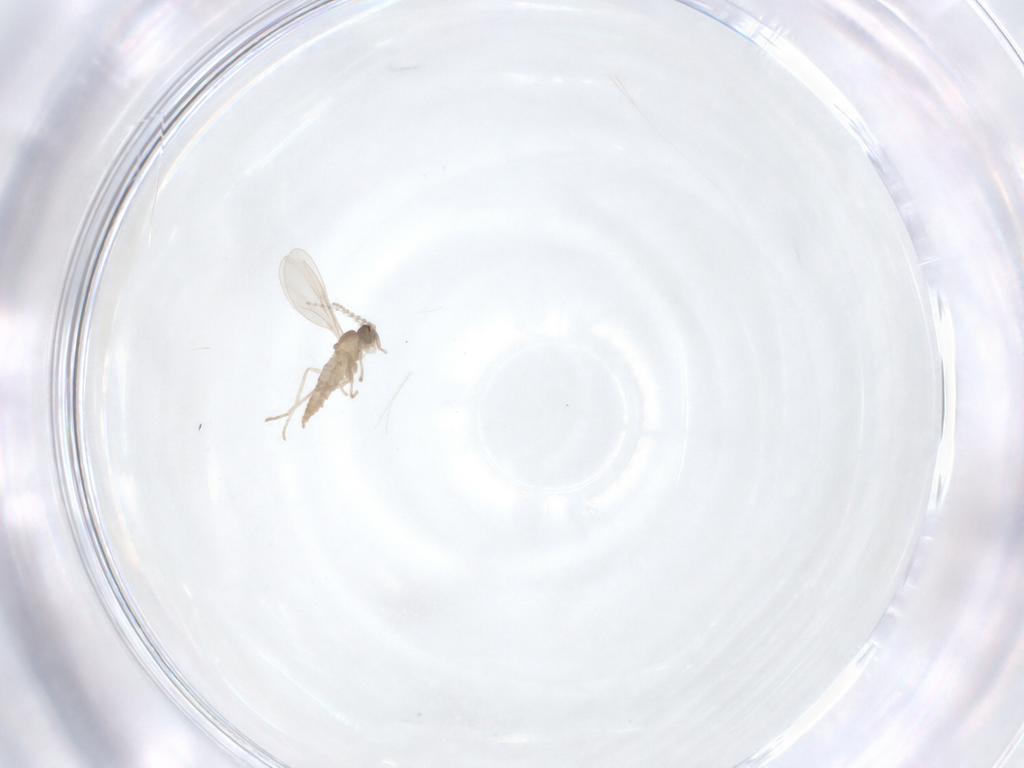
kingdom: Animalia
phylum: Arthropoda
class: Insecta
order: Diptera
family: Cecidomyiidae
